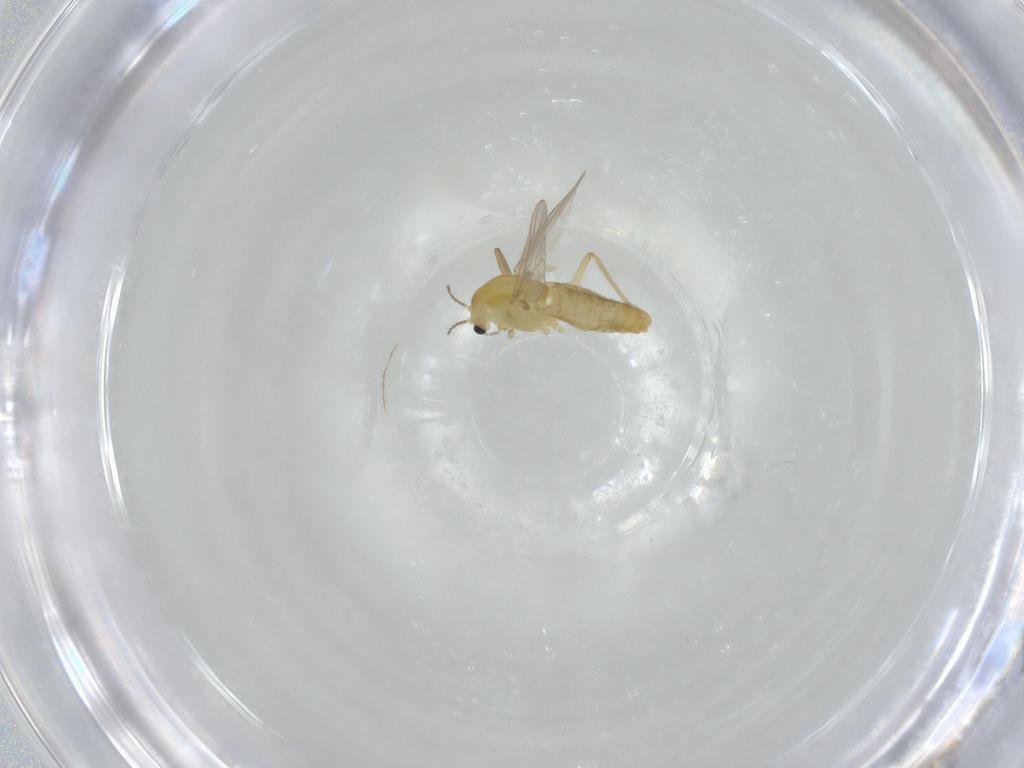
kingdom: Animalia
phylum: Arthropoda
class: Insecta
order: Diptera
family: Chironomidae
